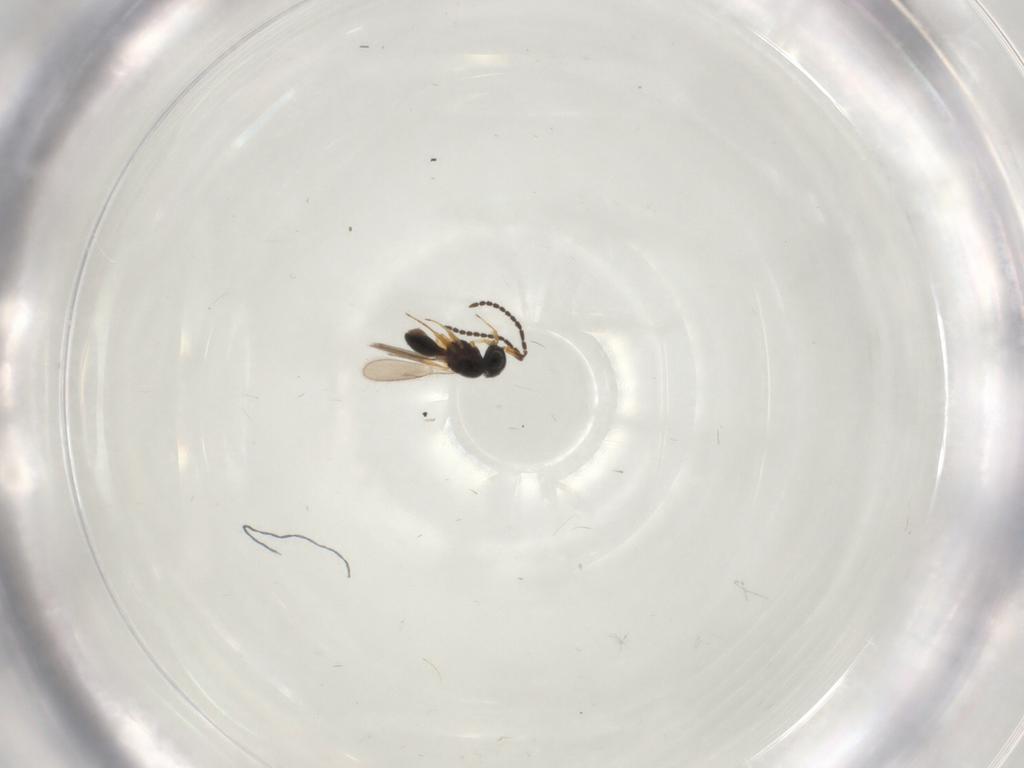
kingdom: Animalia
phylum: Arthropoda
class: Insecta
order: Hymenoptera
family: Scelionidae
